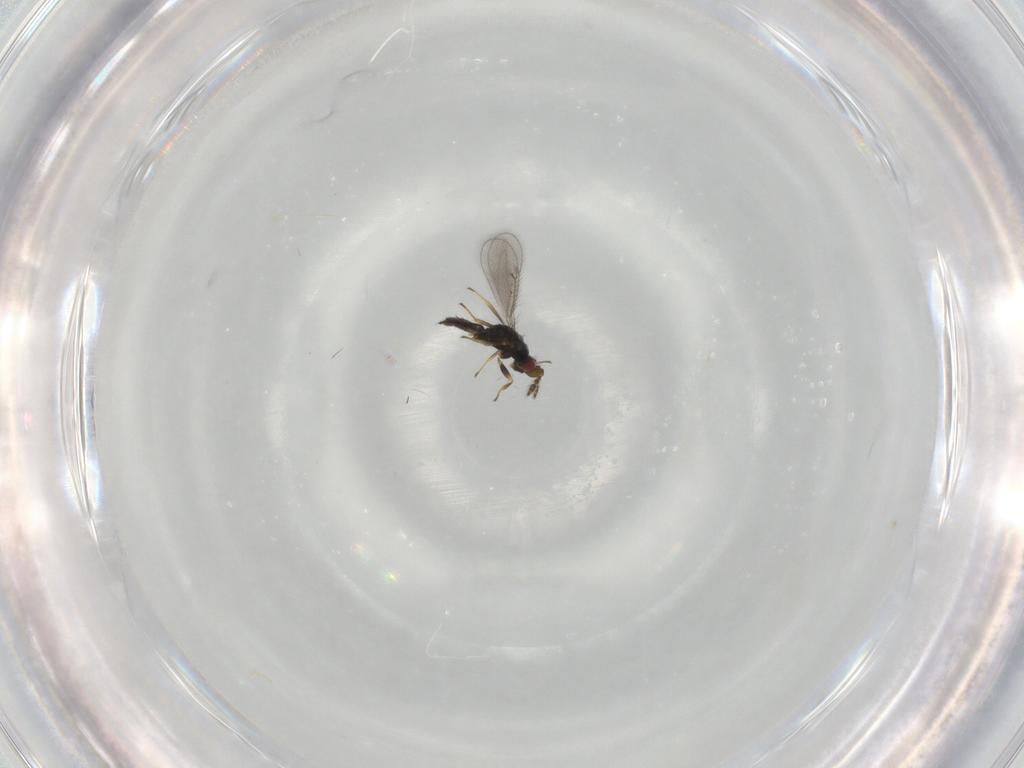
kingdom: Animalia
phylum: Arthropoda
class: Insecta
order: Hymenoptera
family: Eulophidae
